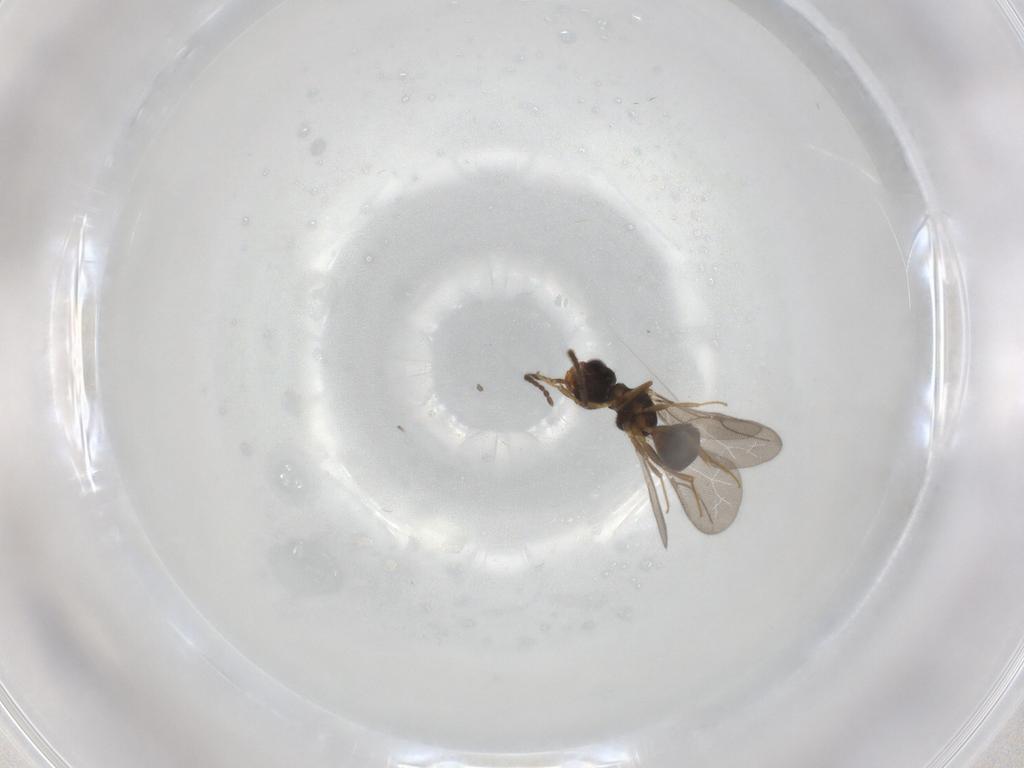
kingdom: Animalia
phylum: Arthropoda
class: Insecta
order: Hymenoptera
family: Bethylidae
